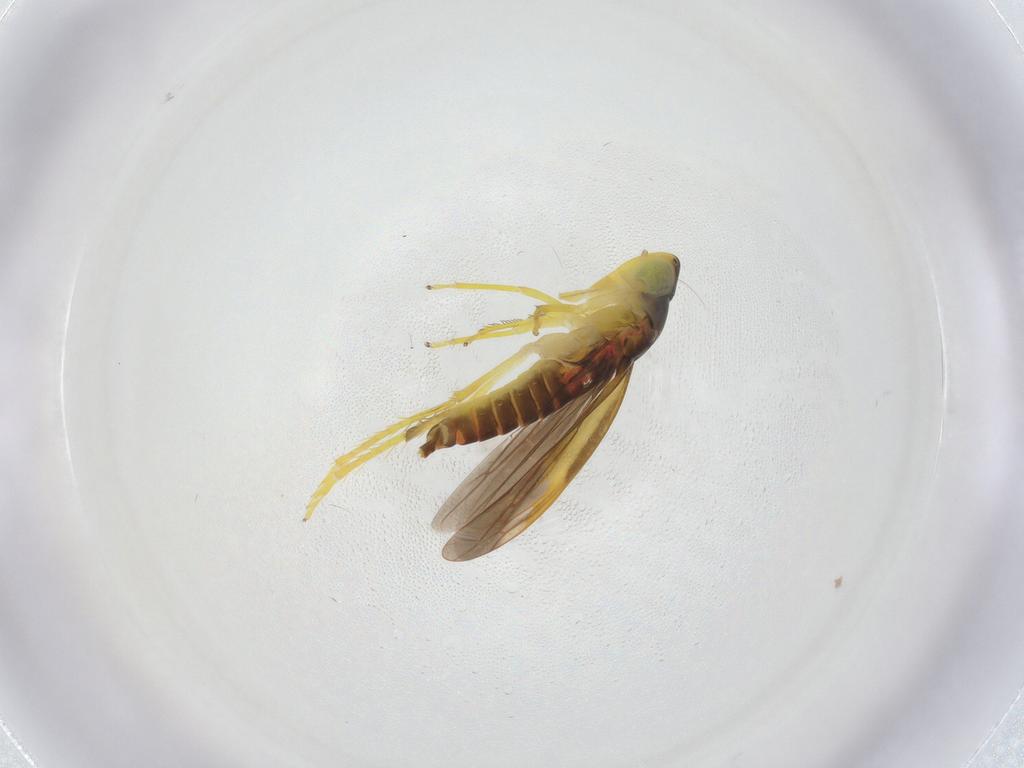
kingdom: Animalia
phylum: Arthropoda
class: Insecta
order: Hemiptera
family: Cicadellidae
